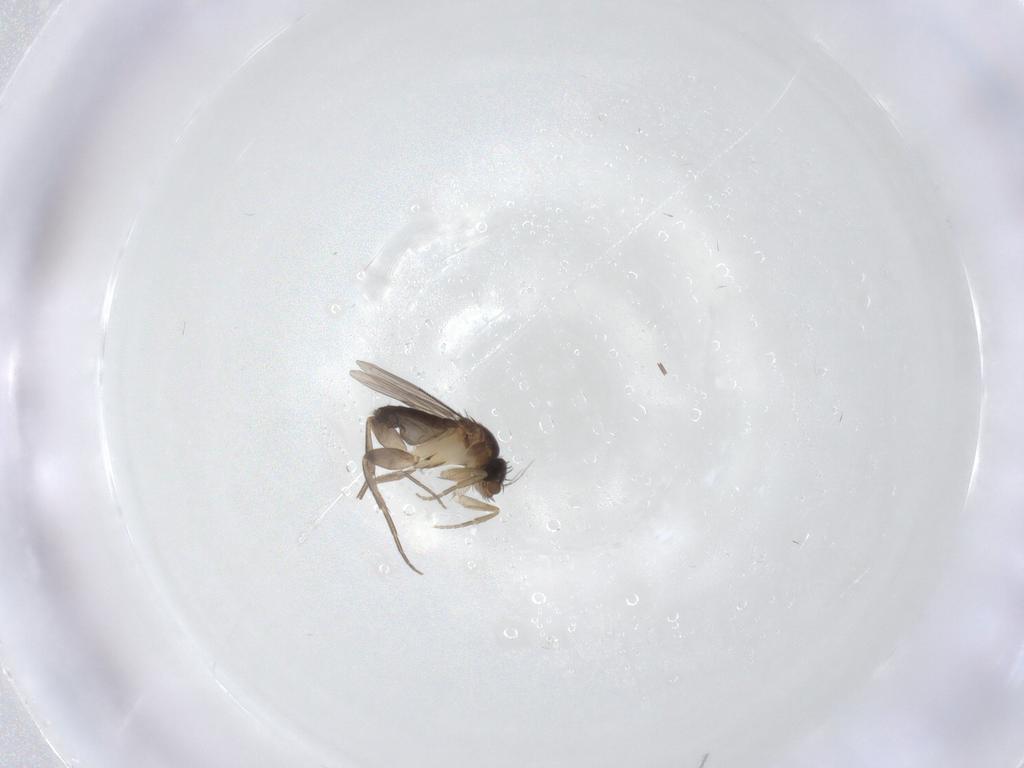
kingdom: Animalia
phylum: Arthropoda
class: Insecta
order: Diptera
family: Phoridae
